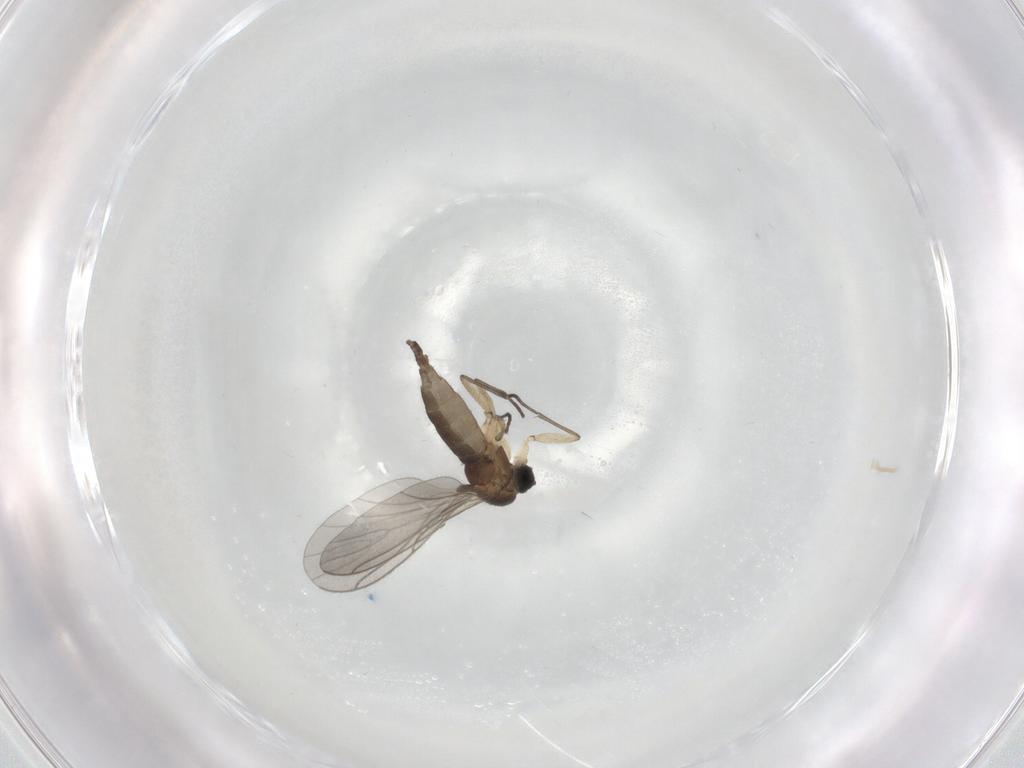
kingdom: Animalia
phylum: Arthropoda
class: Insecta
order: Diptera
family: Sciaridae
